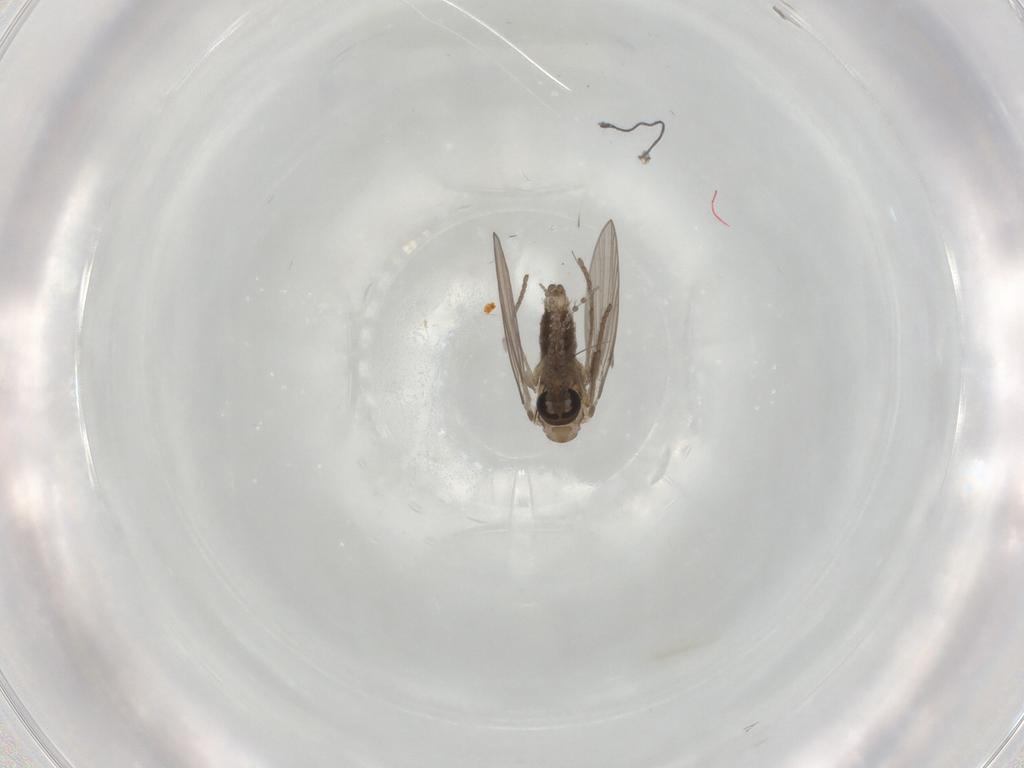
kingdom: Animalia
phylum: Arthropoda
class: Insecta
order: Diptera
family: Psychodidae
